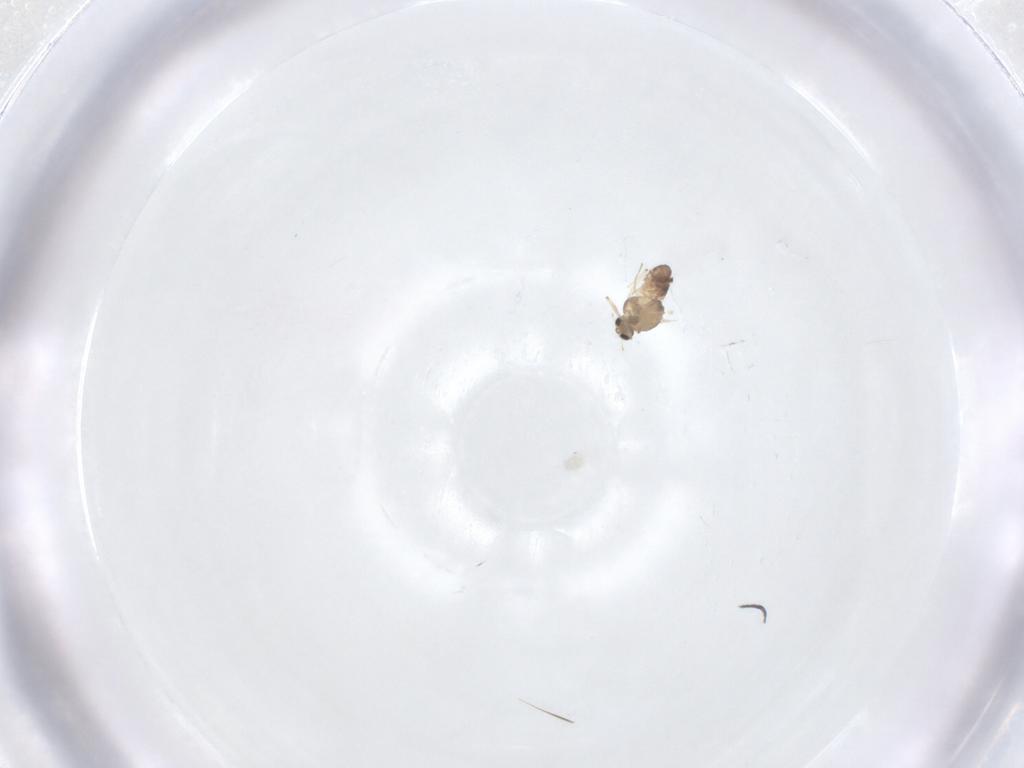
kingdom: Animalia
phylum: Arthropoda
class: Insecta
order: Diptera
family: Chironomidae
